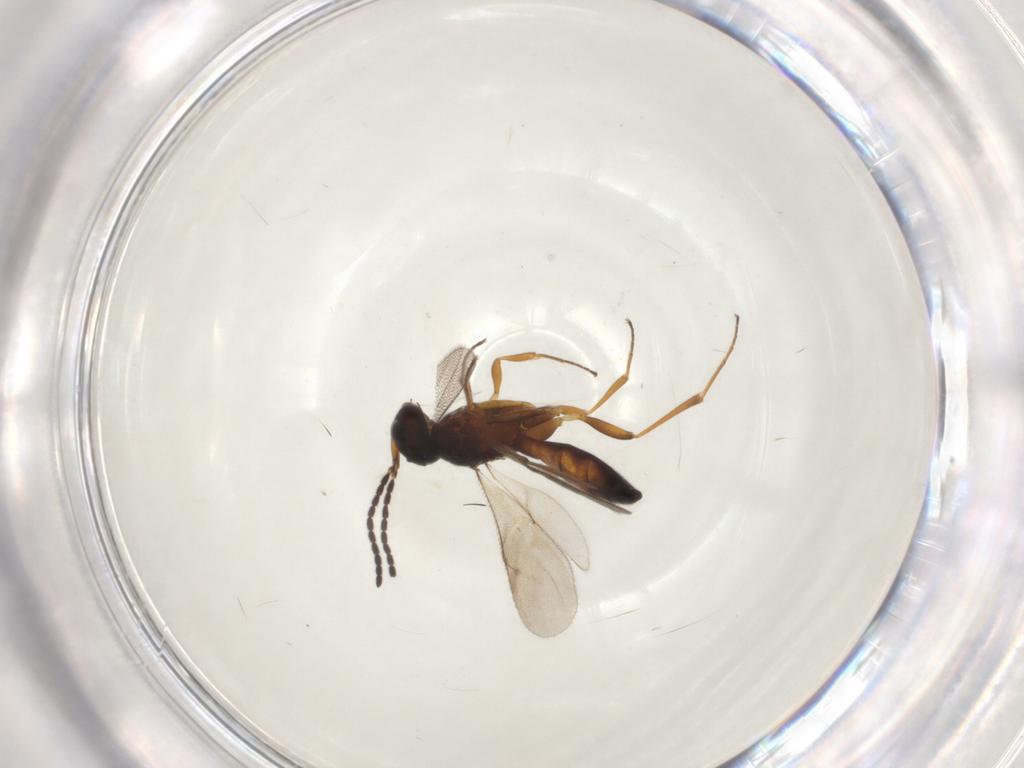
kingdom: Animalia
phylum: Arthropoda
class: Insecta
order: Hymenoptera
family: Scelionidae
